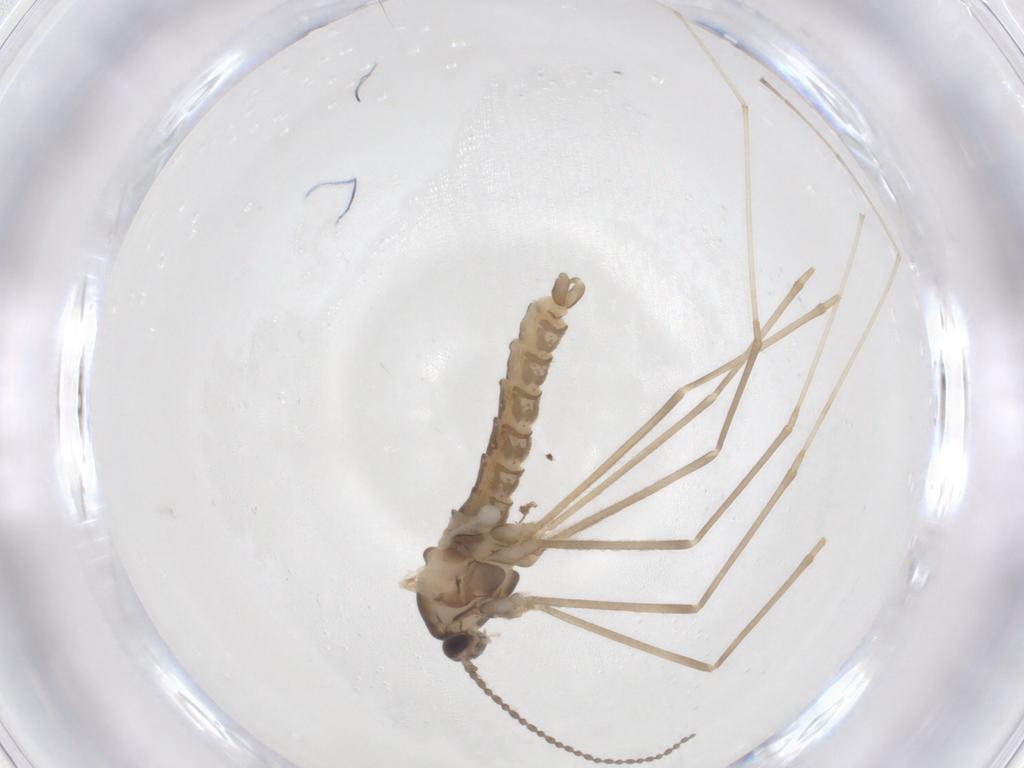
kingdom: Animalia
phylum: Arthropoda
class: Insecta
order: Diptera
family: Cecidomyiidae
